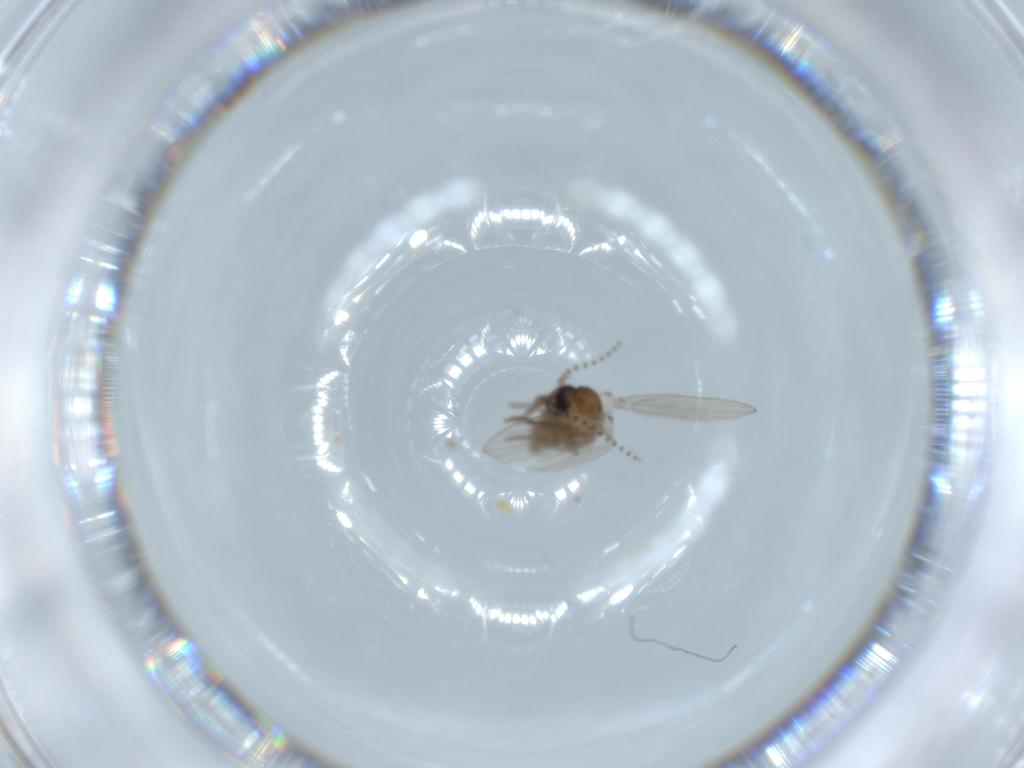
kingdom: Animalia
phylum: Arthropoda
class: Insecta
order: Diptera
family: Psychodidae
